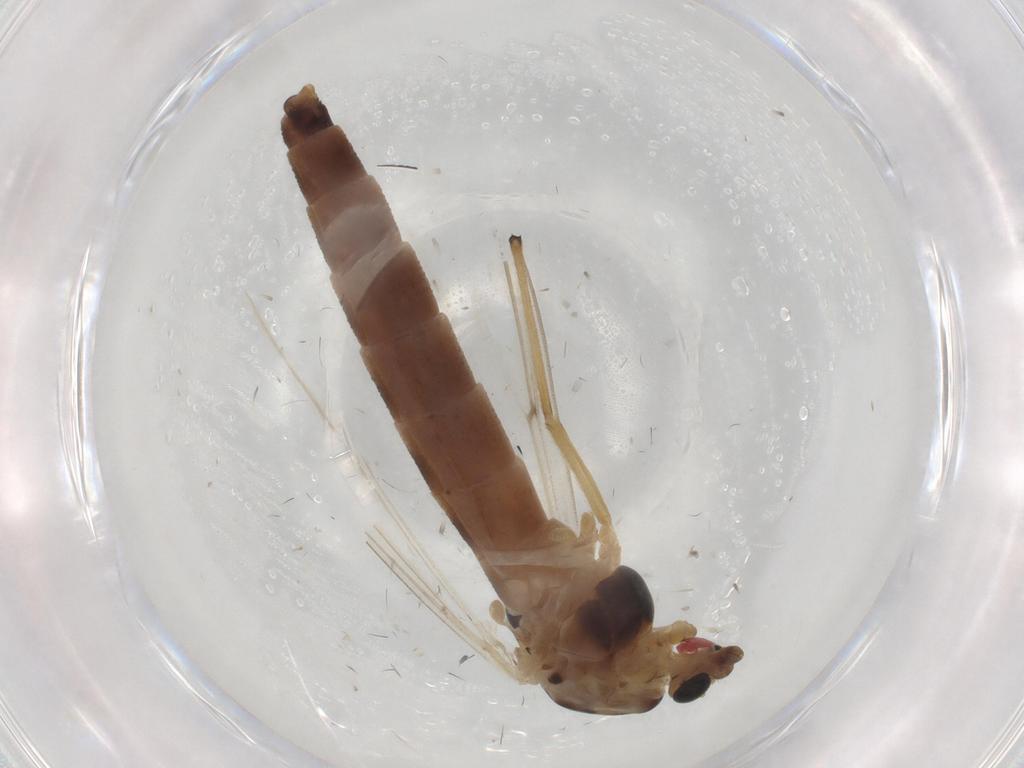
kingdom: Animalia
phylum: Arthropoda
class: Insecta
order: Diptera
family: Chironomidae
